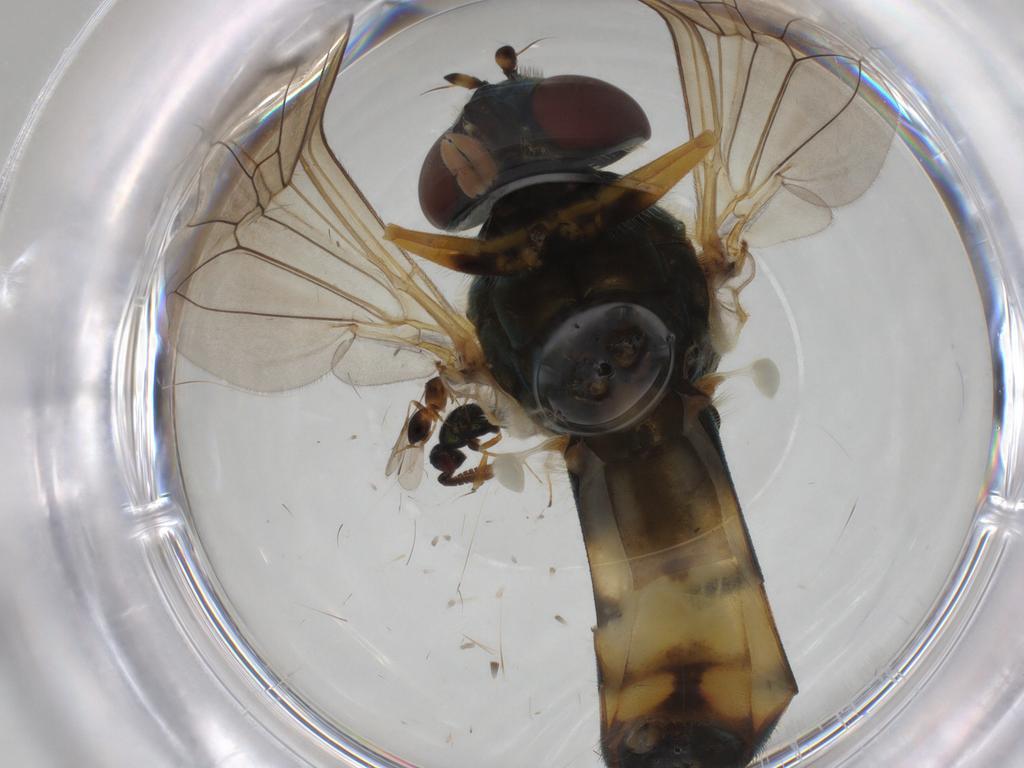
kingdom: Animalia
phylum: Arthropoda
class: Insecta
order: Diptera
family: Syrphidae
